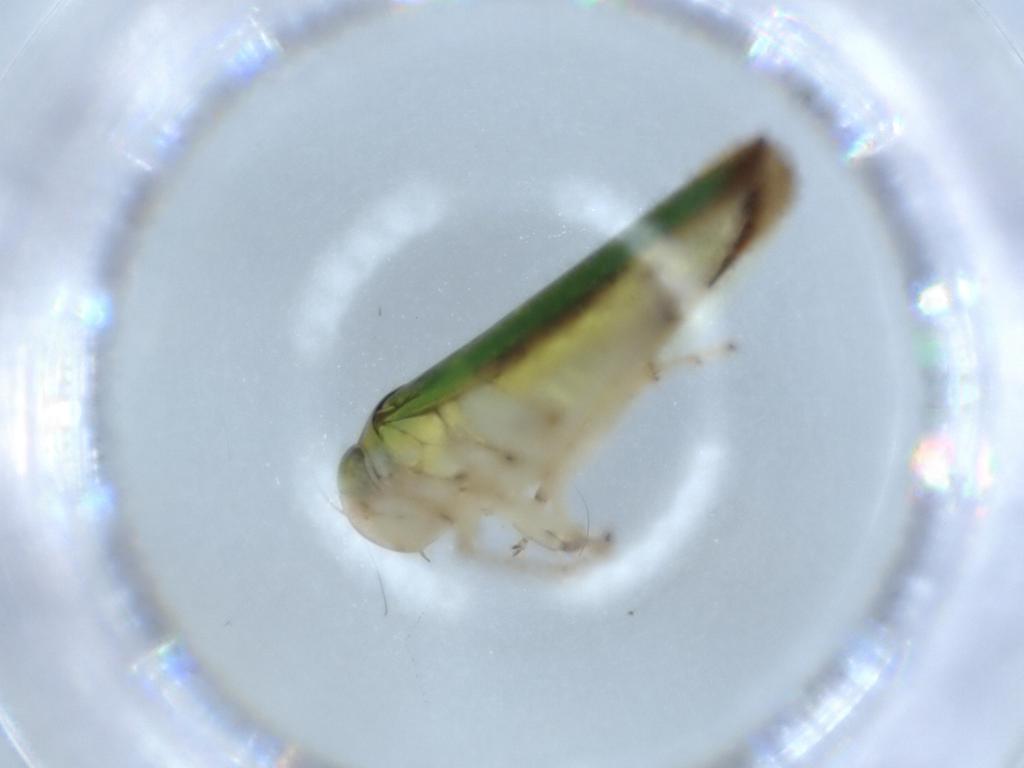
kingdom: Animalia
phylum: Arthropoda
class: Insecta
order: Hemiptera
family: Cicadellidae
